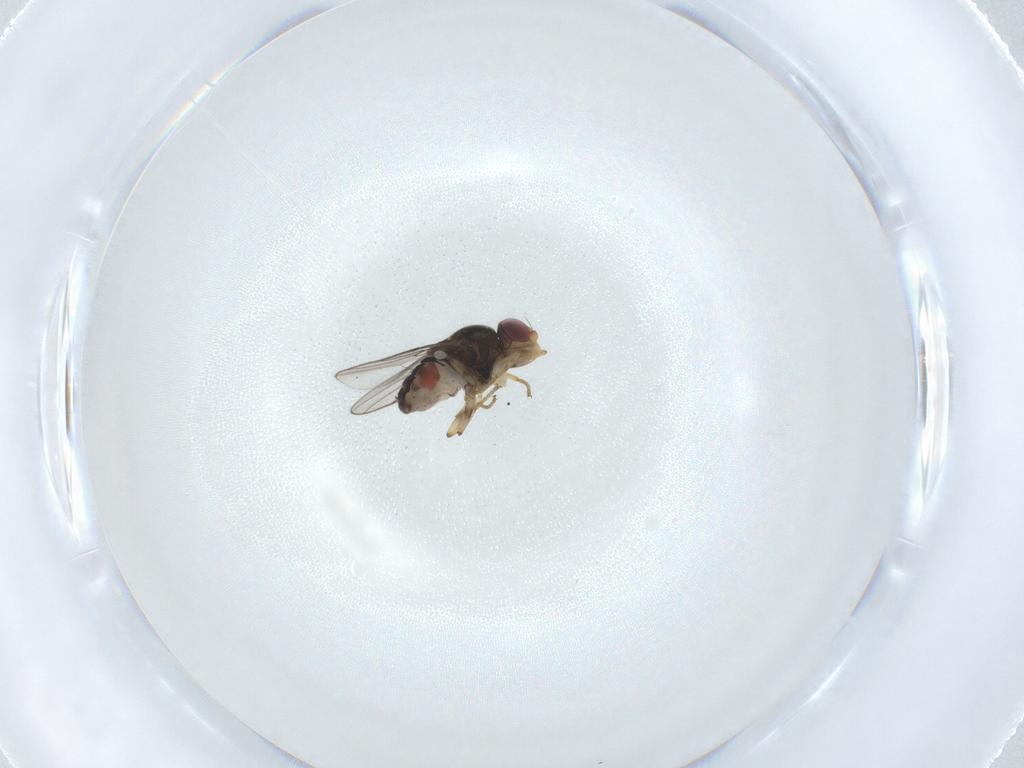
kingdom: Animalia
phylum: Arthropoda
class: Insecta
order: Diptera
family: Chloropidae
